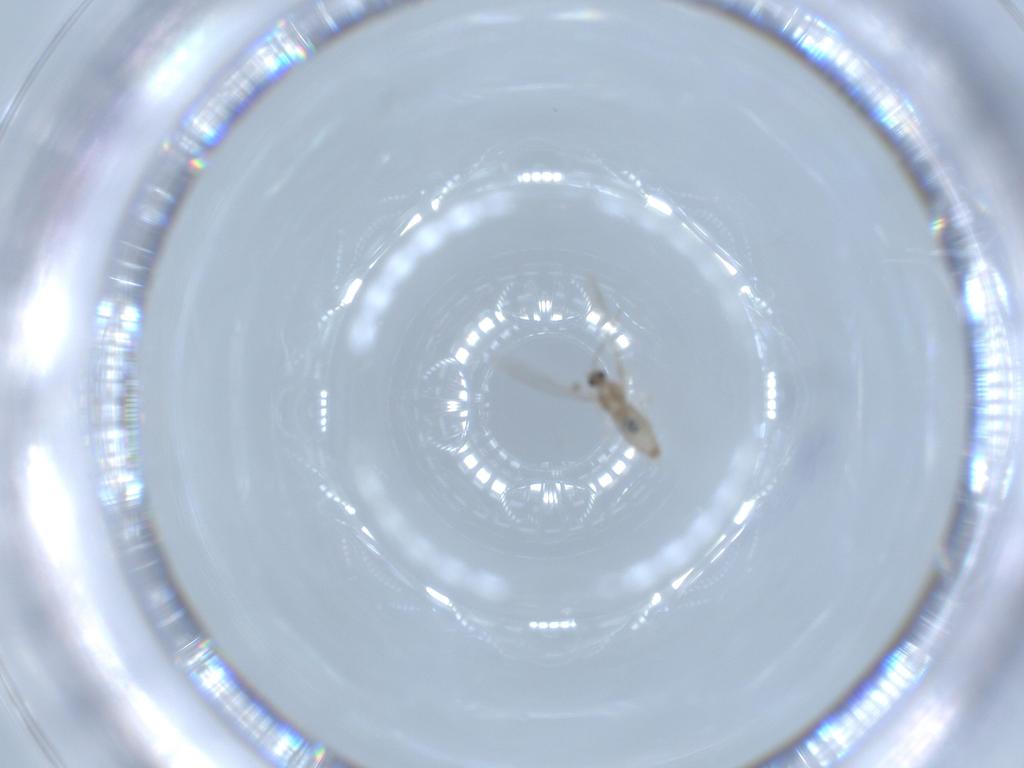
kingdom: Animalia
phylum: Arthropoda
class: Insecta
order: Diptera
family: Cecidomyiidae
